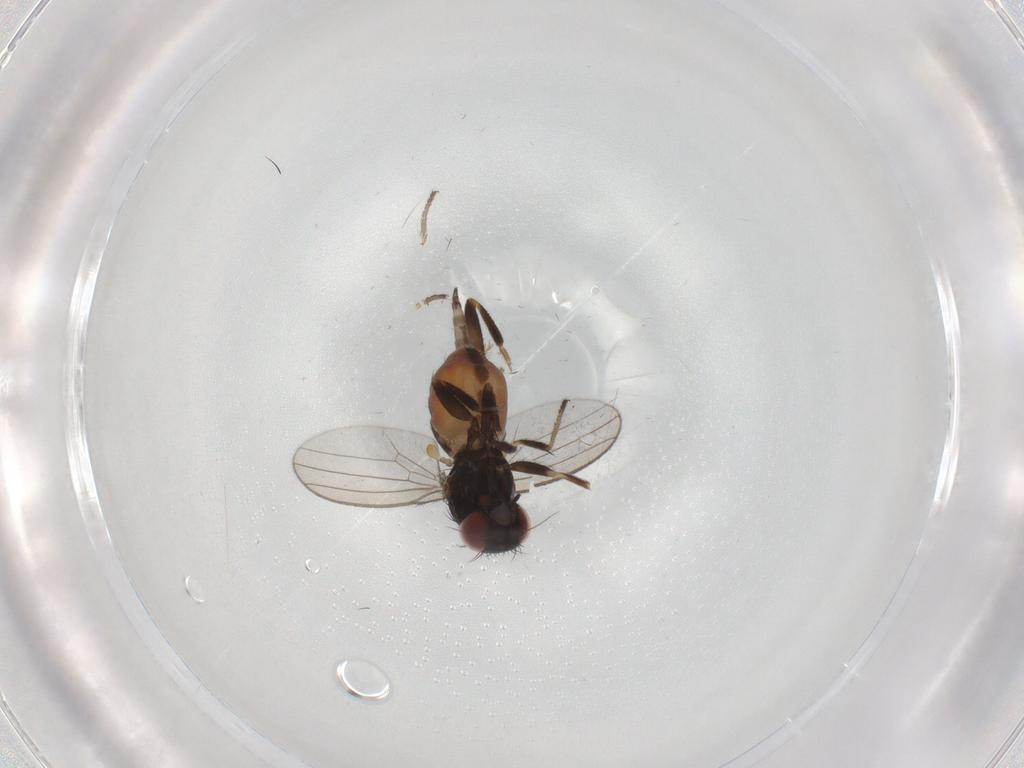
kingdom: Animalia
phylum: Arthropoda
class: Insecta
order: Diptera
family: Milichiidae
